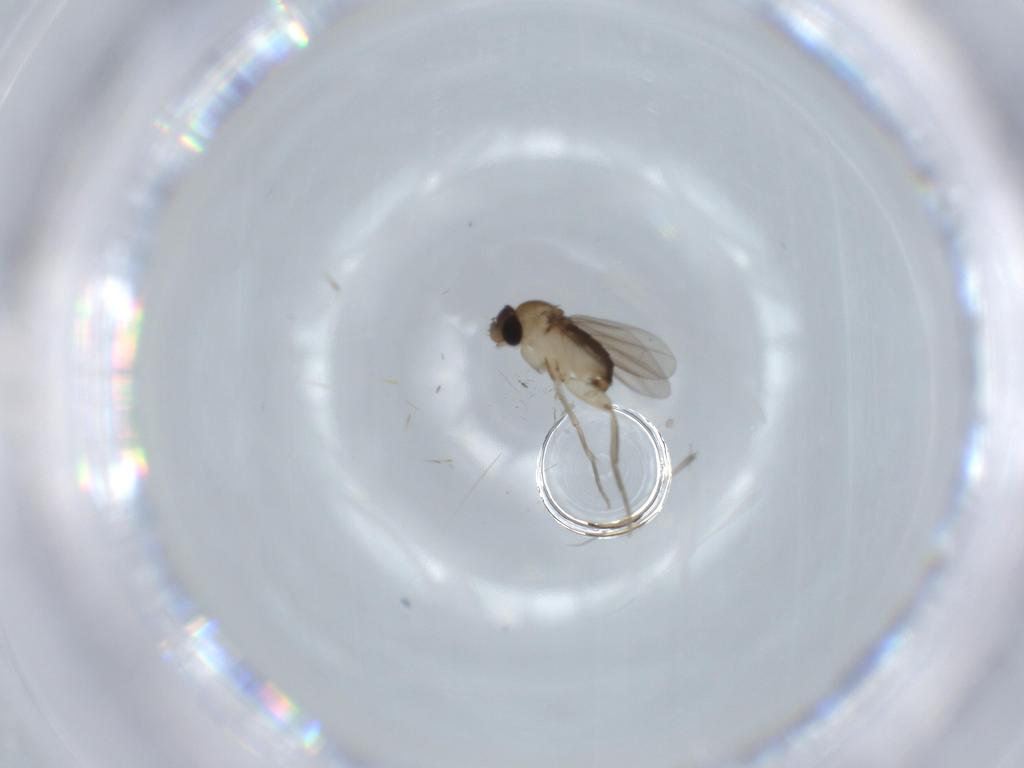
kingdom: Animalia
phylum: Arthropoda
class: Insecta
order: Diptera
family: Phoridae
